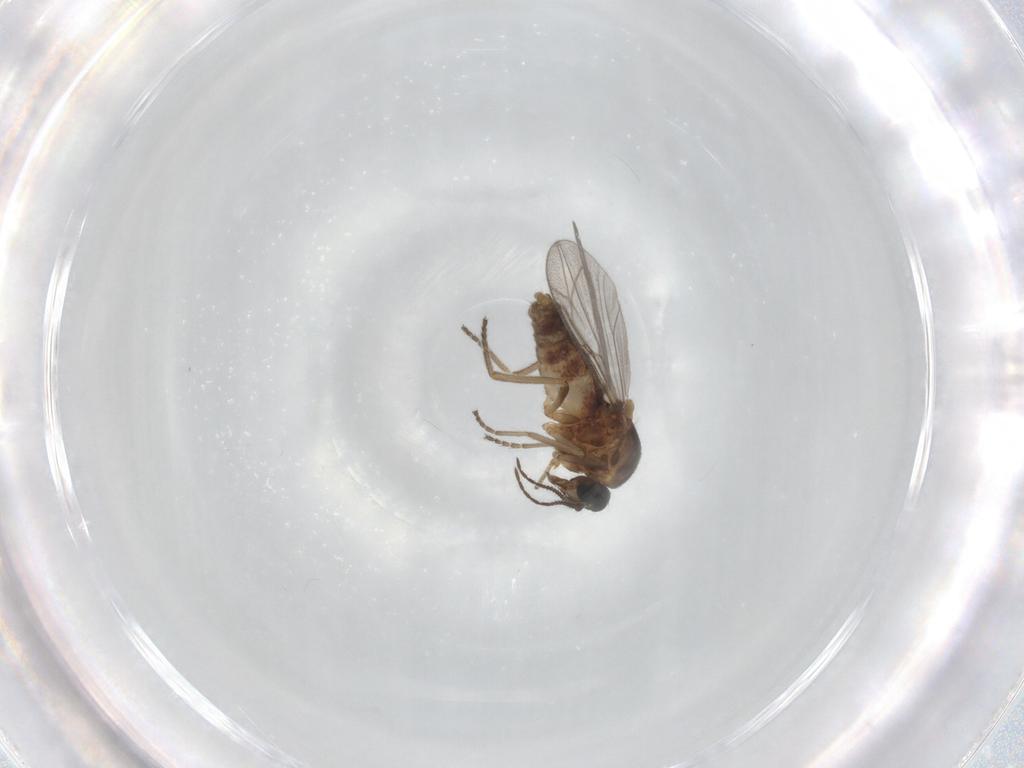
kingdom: Animalia
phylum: Arthropoda
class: Insecta
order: Diptera
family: Ceratopogonidae
